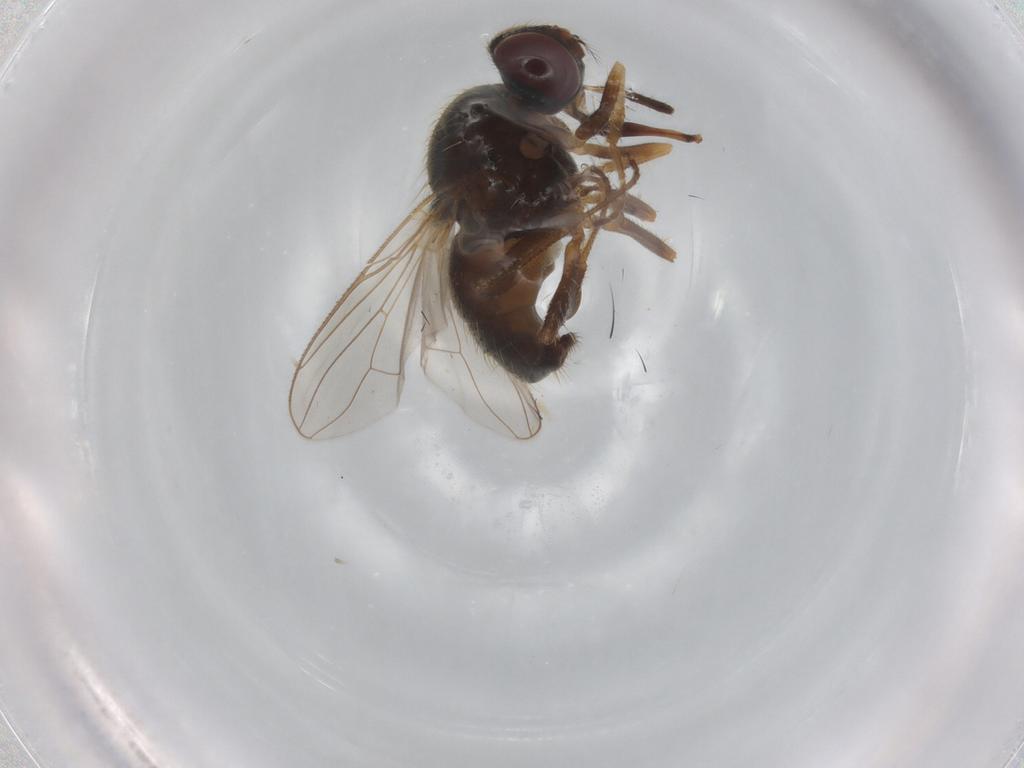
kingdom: Animalia
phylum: Arthropoda
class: Insecta
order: Diptera
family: Muscidae
